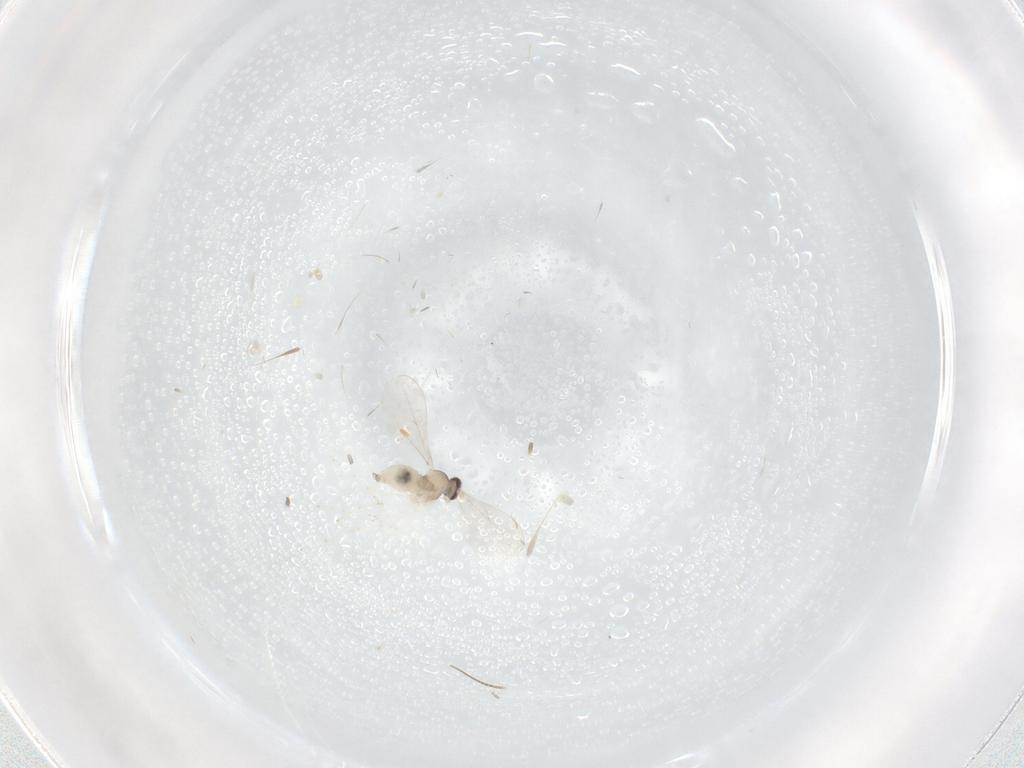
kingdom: Animalia
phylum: Arthropoda
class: Insecta
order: Diptera
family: Cecidomyiidae
